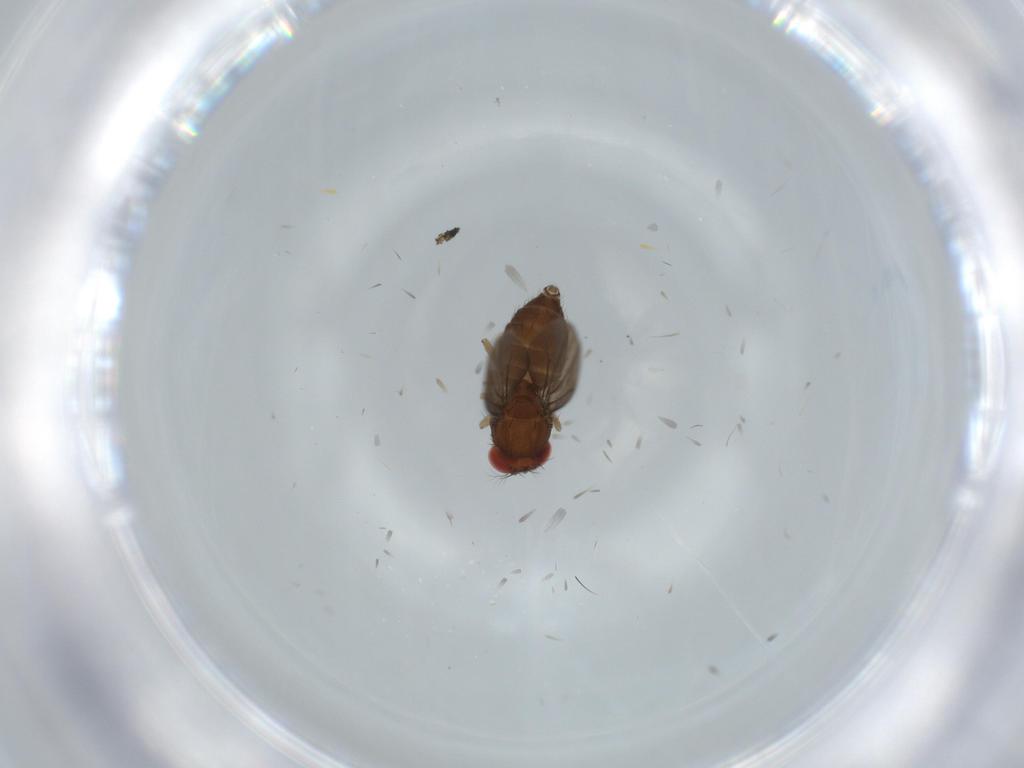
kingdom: Animalia
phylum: Arthropoda
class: Insecta
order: Diptera
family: Drosophilidae
